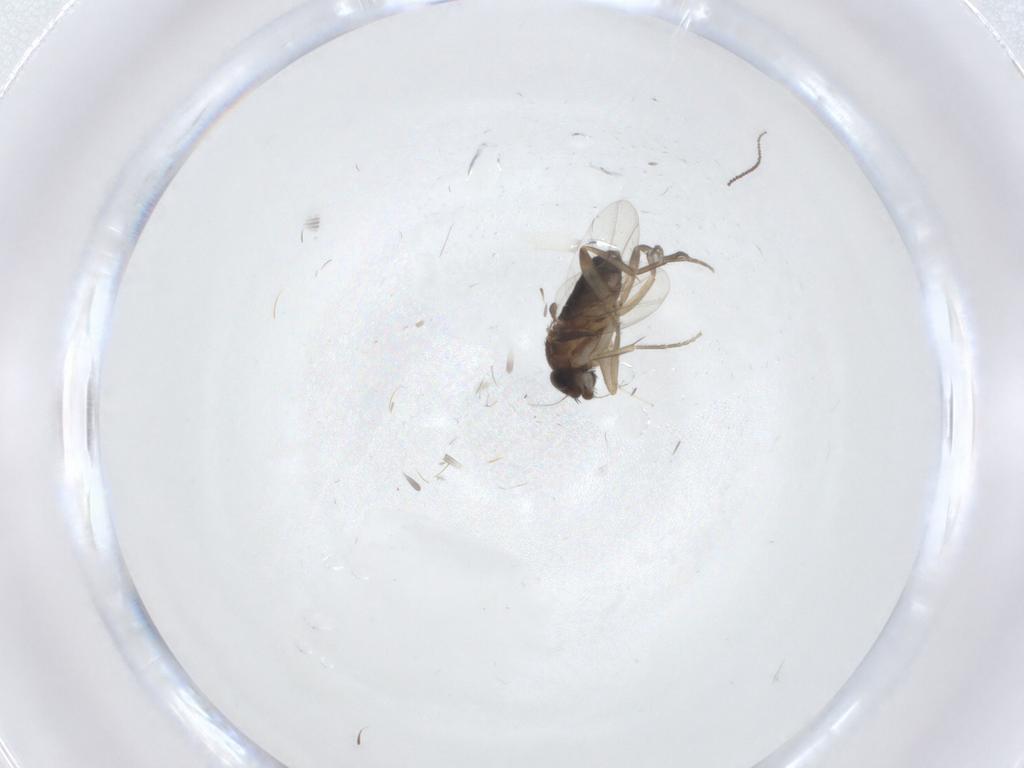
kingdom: Animalia
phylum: Arthropoda
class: Insecta
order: Diptera
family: Cecidomyiidae
